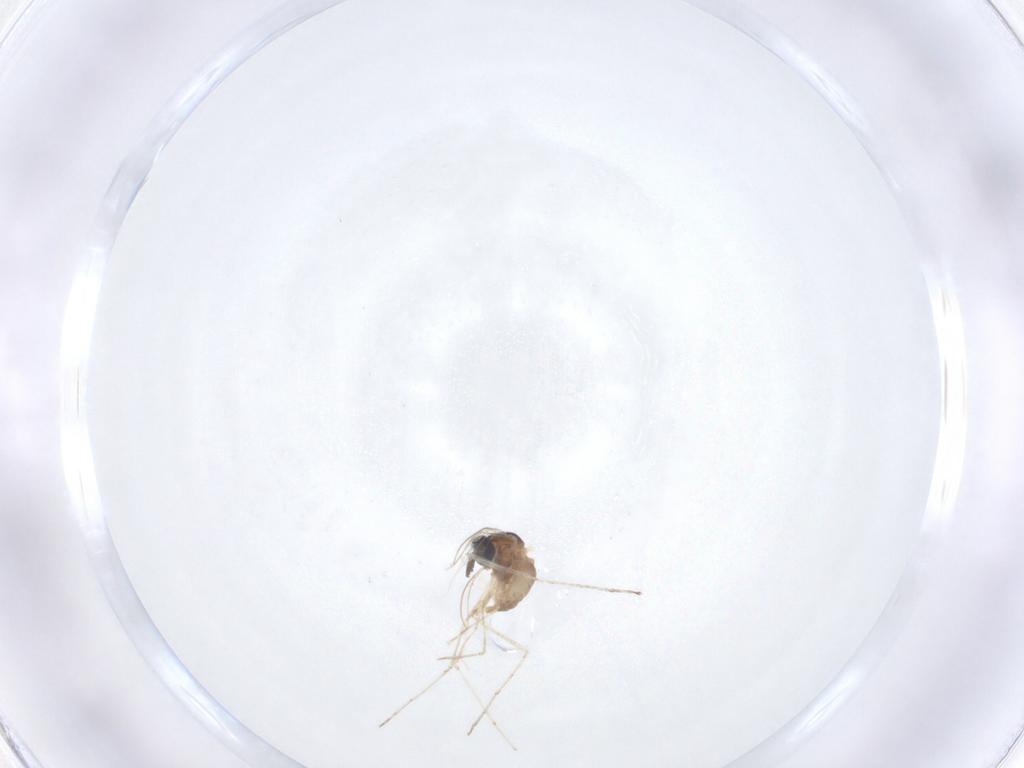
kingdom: Animalia
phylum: Arthropoda
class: Insecta
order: Diptera
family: Cecidomyiidae
